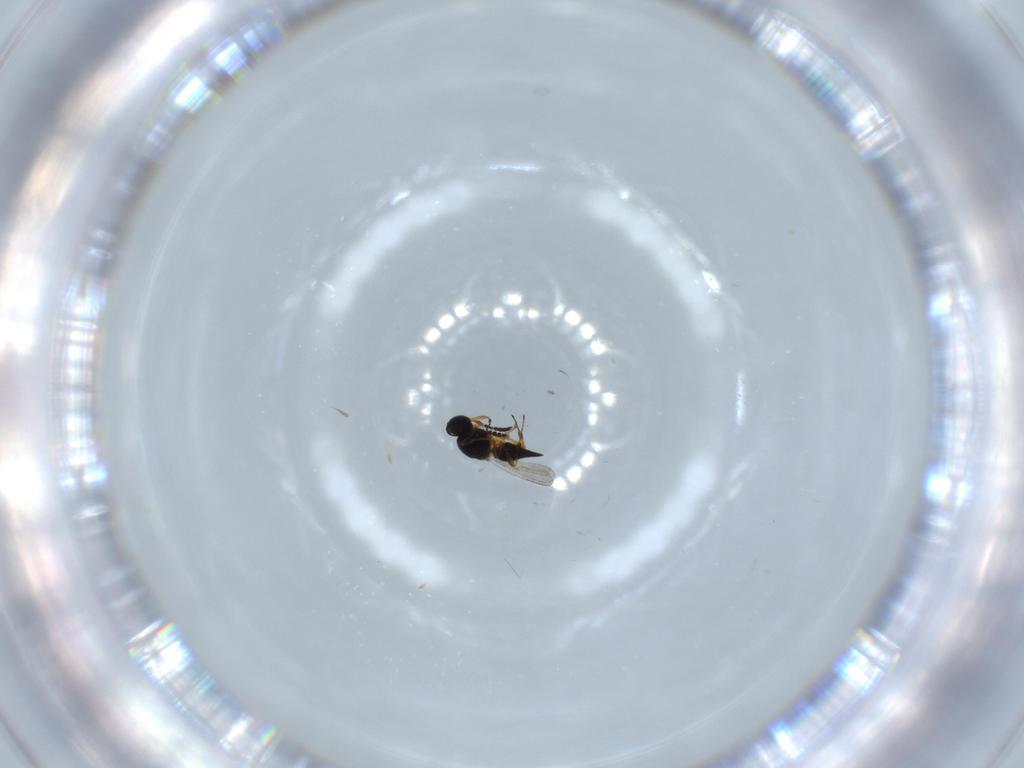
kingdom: Animalia
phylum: Arthropoda
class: Insecta
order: Hymenoptera
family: Platygastridae
